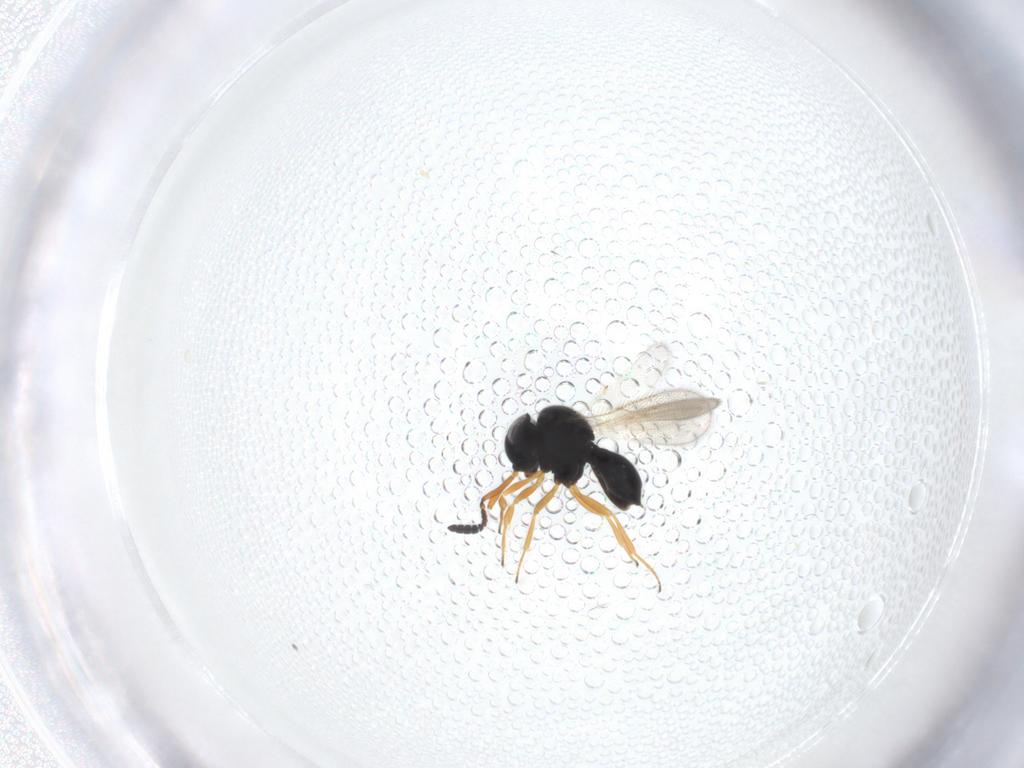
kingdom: Animalia
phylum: Arthropoda
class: Insecta
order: Hymenoptera
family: Scelionidae
